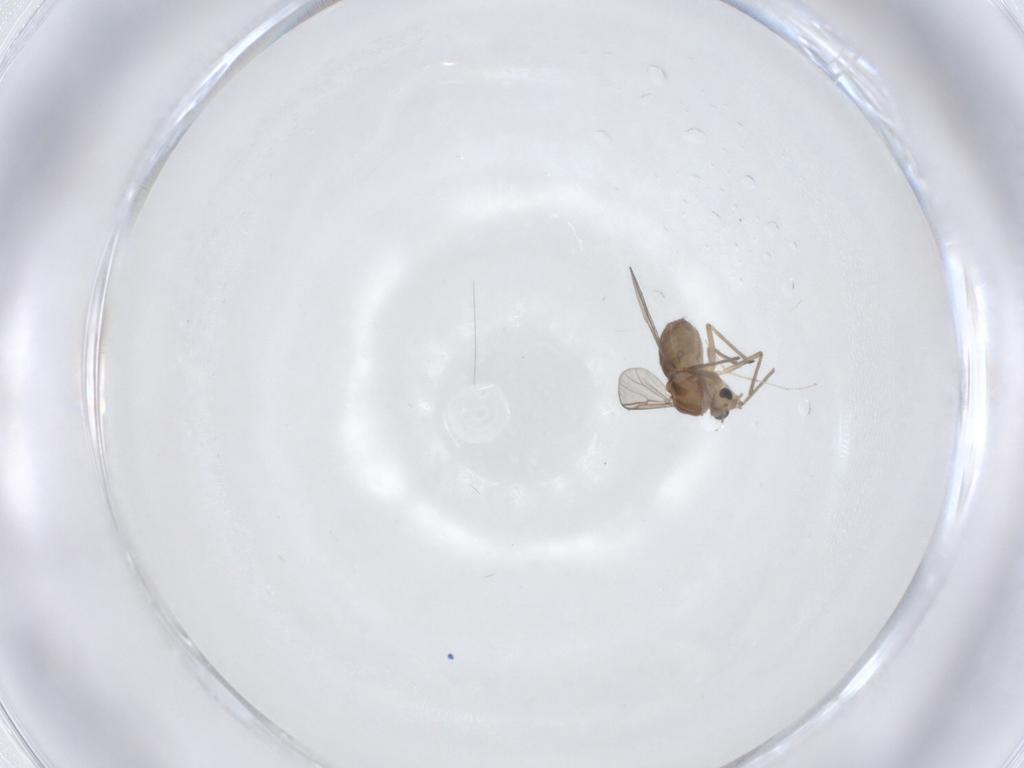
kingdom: Animalia
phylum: Arthropoda
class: Insecta
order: Diptera
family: Chironomidae
